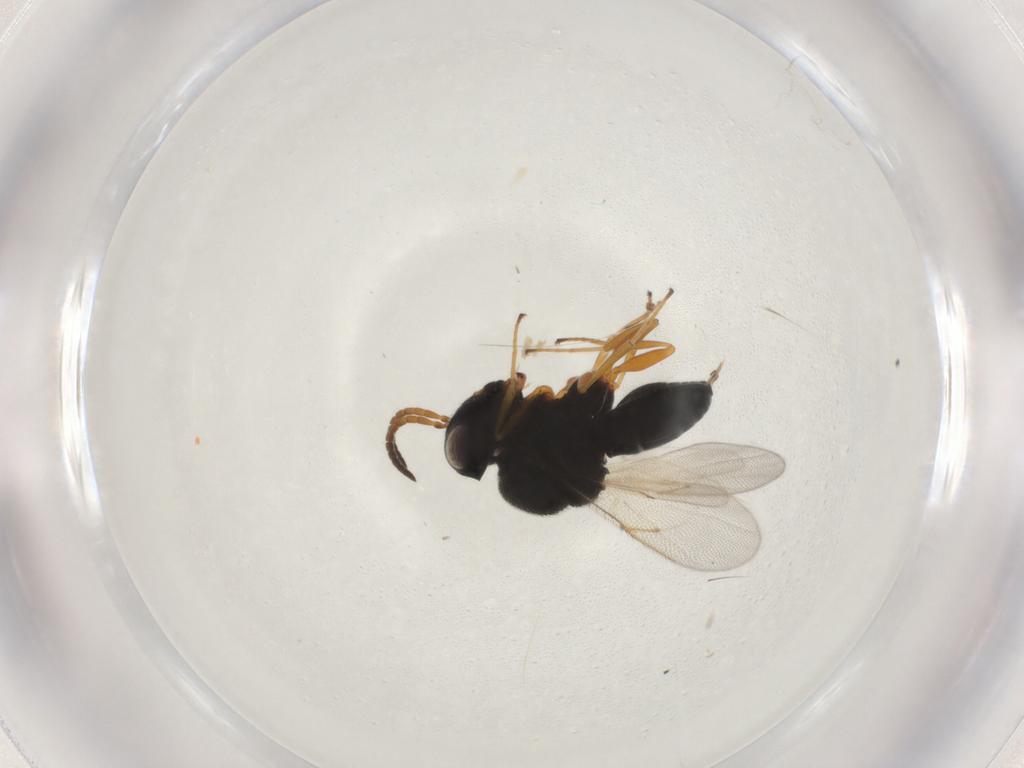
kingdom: Animalia
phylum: Arthropoda
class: Insecta
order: Hymenoptera
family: Scelionidae
